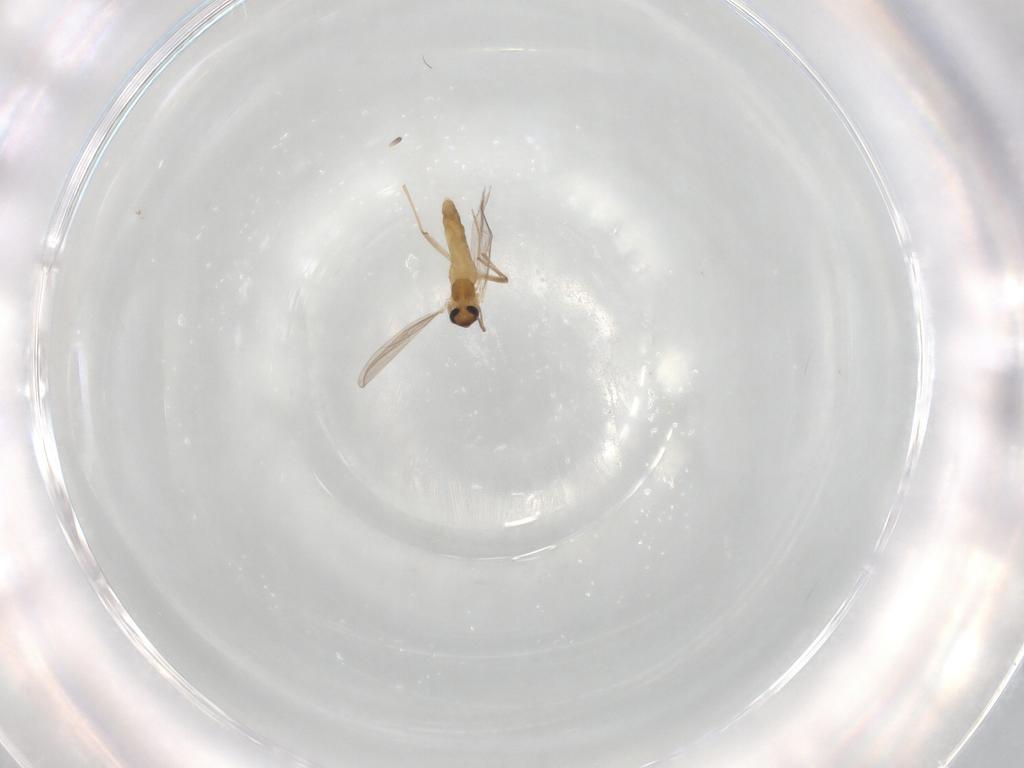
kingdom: Animalia
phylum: Arthropoda
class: Insecta
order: Diptera
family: Chironomidae
